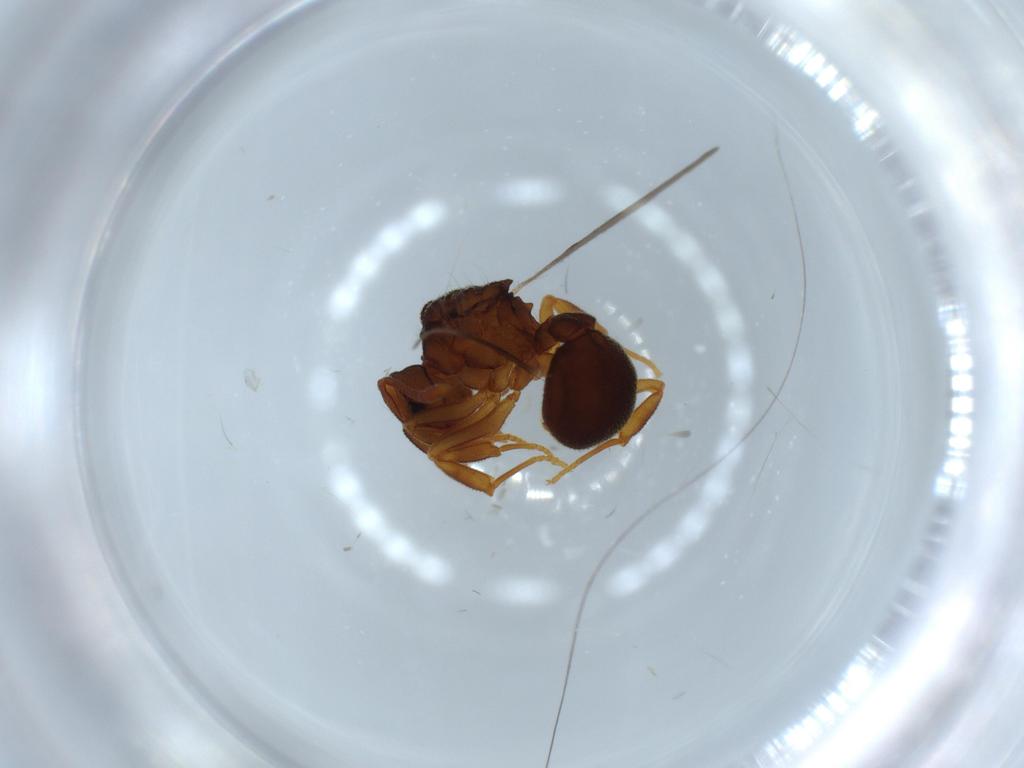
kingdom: Animalia
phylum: Arthropoda
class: Insecta
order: Hymenoptera
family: Formicidae
